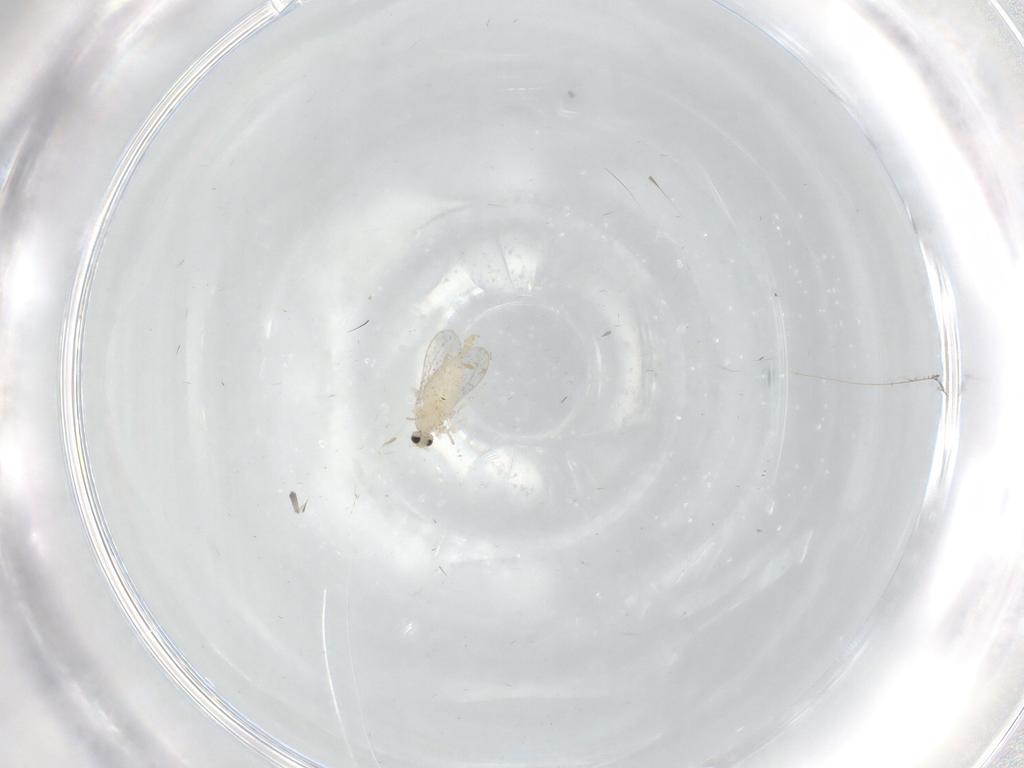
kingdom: Animalia
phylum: Arthropoda
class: Insecta
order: Diptera
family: Cecidomyiidae
